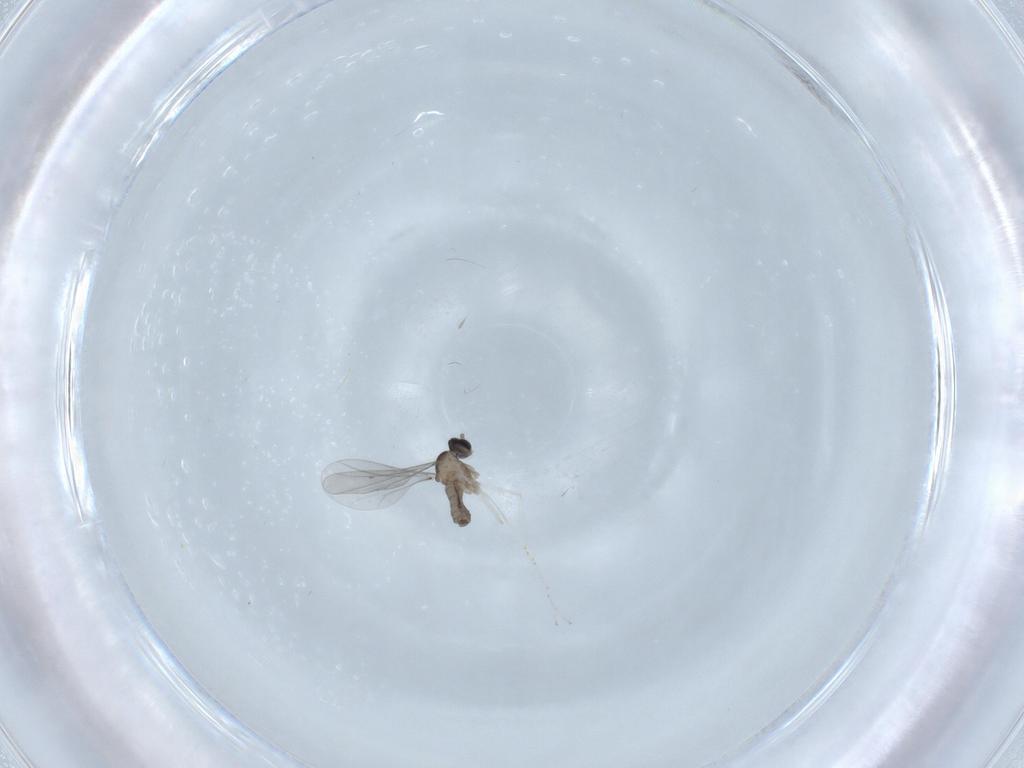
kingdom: Animalia
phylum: Arthropoda
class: Insecta
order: Diptera
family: Cecidomyiidae
